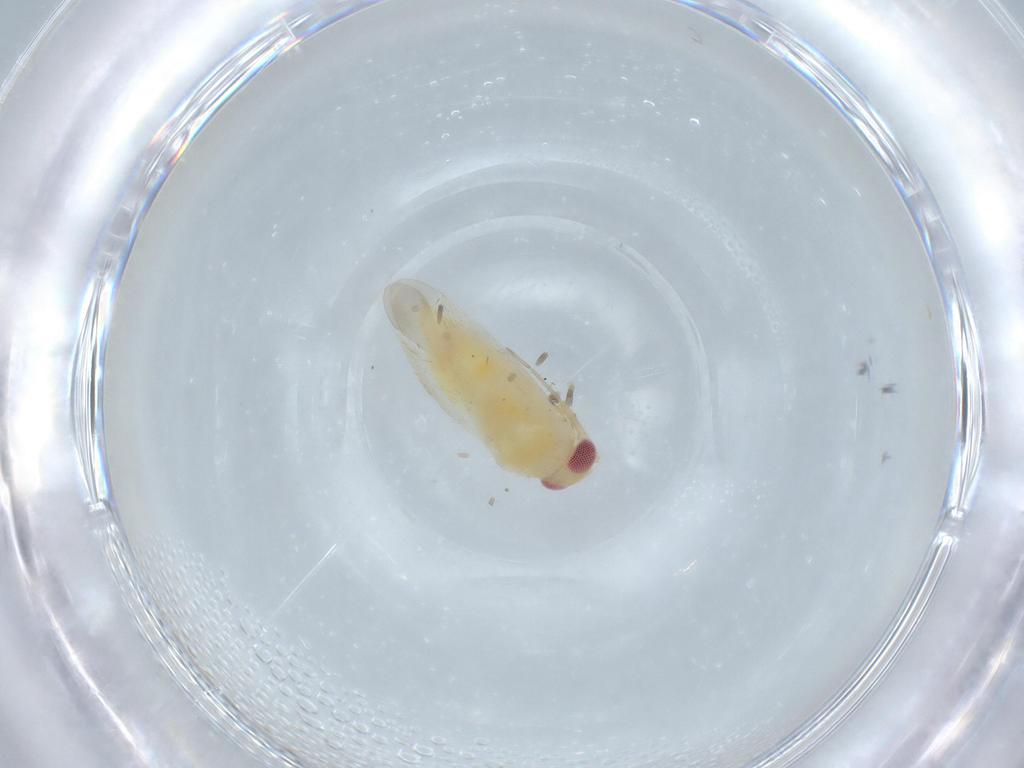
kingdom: Animalia
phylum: Arthropoda
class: Insecta
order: Hemiptera
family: Miridae
